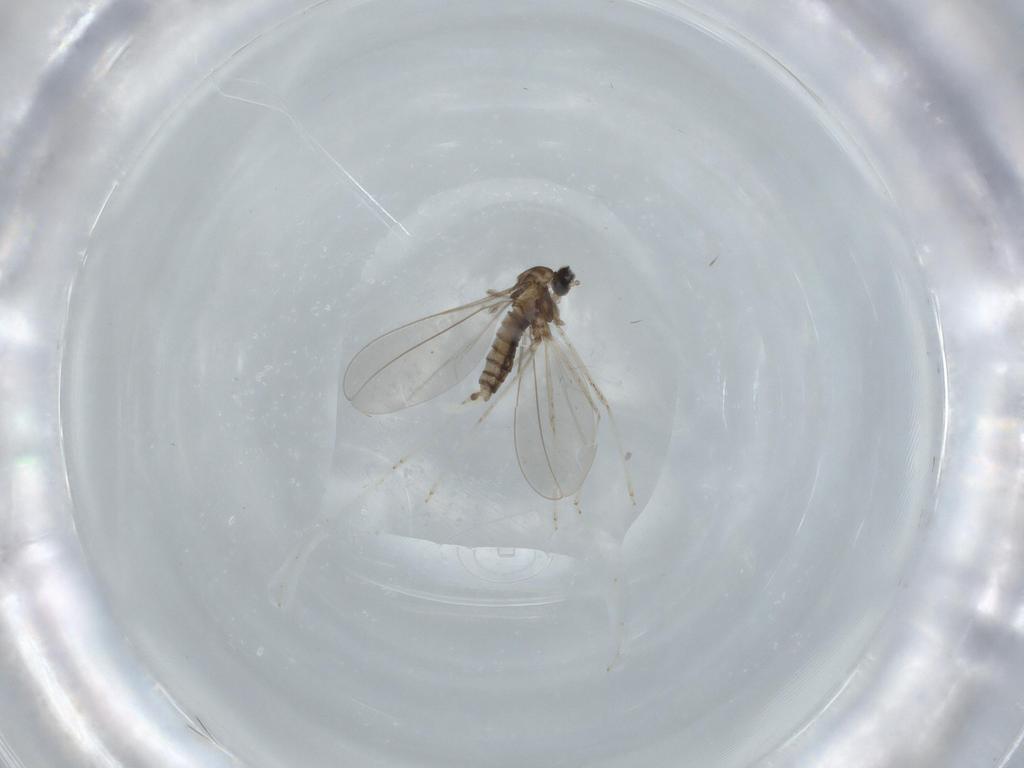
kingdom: Animalia
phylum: Arthropoda
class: Insecta
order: Diptera
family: Cecidomyiidae
